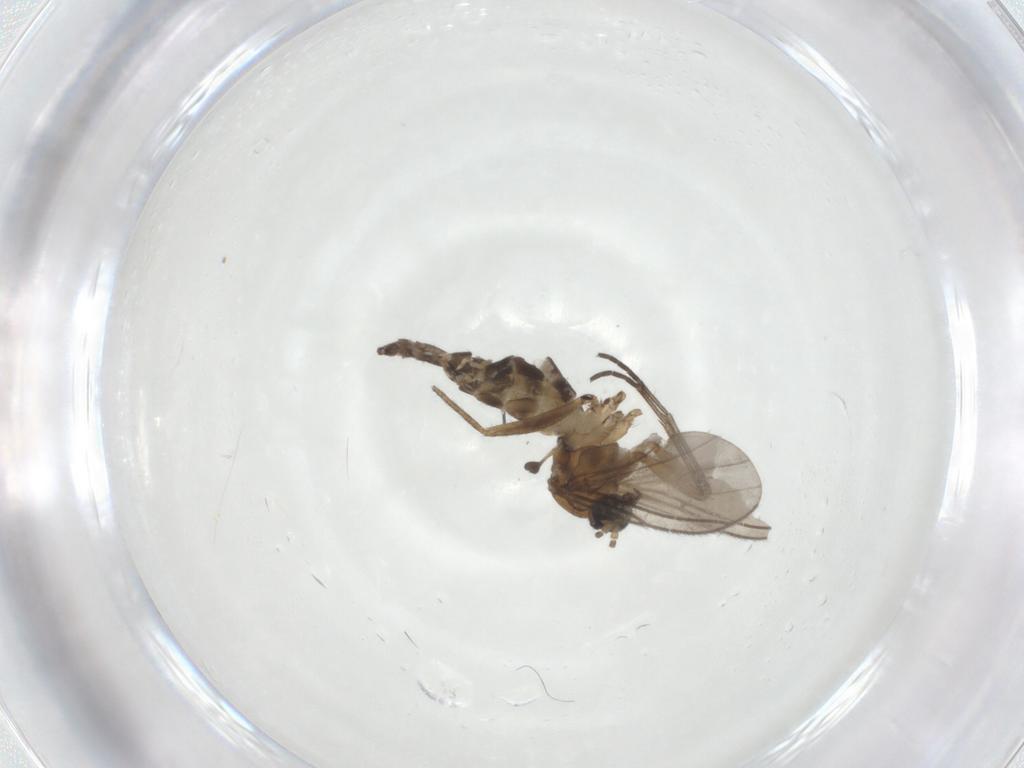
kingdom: Animalia
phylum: Arthropoda
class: Insecta
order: Diptera
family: Sciaridae
